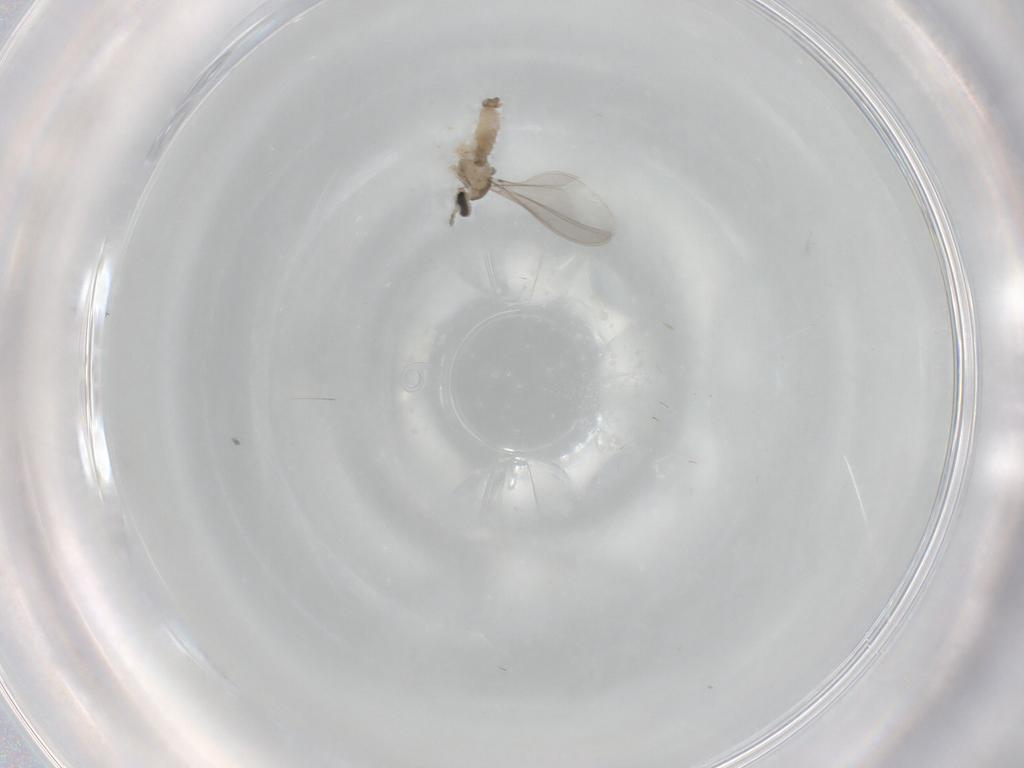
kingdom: Animalia
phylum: Arthropoda
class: Insecta
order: Diptera
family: Cecidomyiidae
